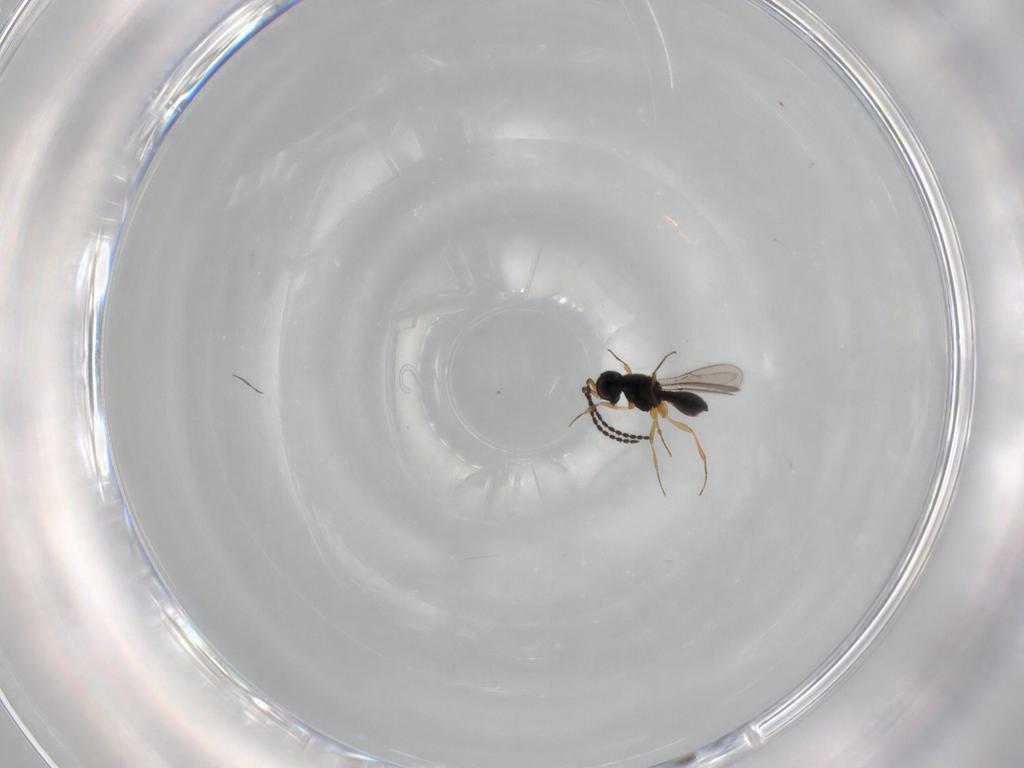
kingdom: Animalia
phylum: Arthropoda
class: Insecta
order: Hymenoptera
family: Scelionidae
